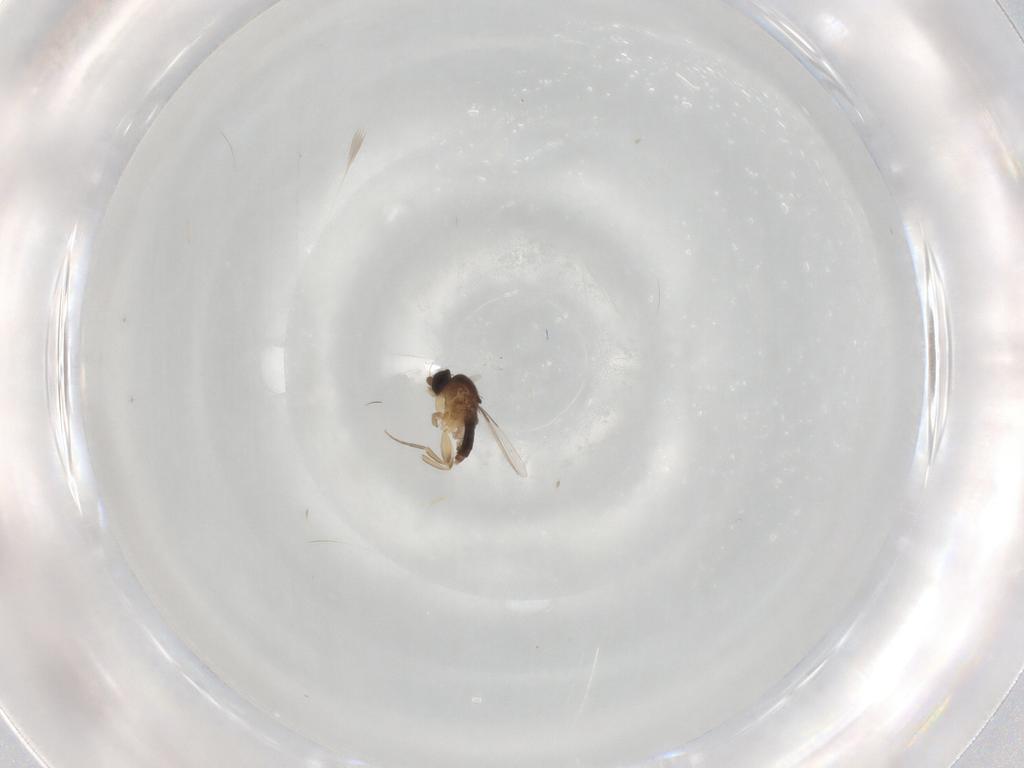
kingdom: Animalia
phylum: Arthropoda
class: Insecta
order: Diptera
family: Phoridae
